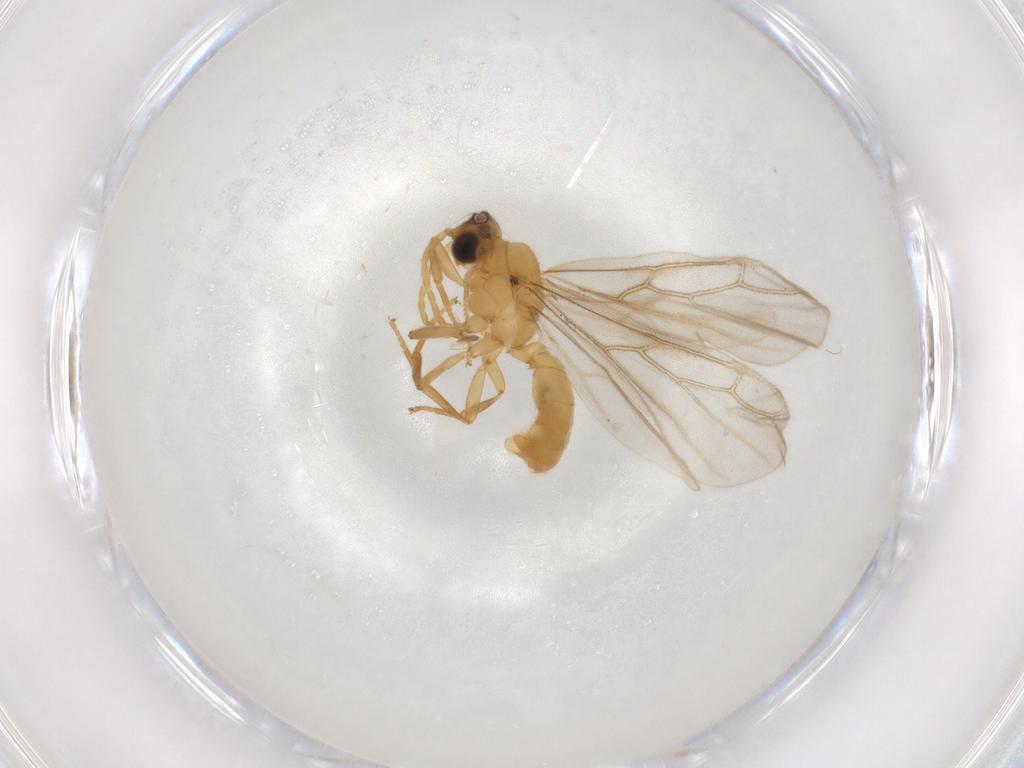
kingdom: Animalia
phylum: Arthropoda
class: Insecta
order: Hymenoptera
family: Formicidae
